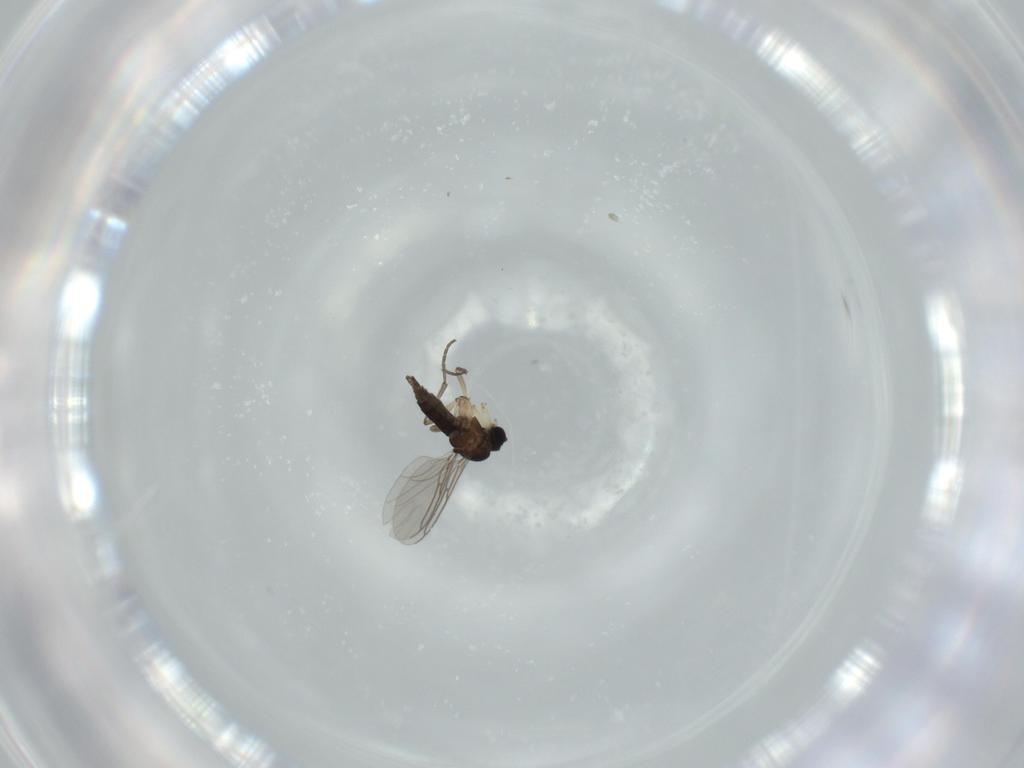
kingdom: Animalia
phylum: Arthropoda
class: Insecta
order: Diptera
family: Sciaridae
